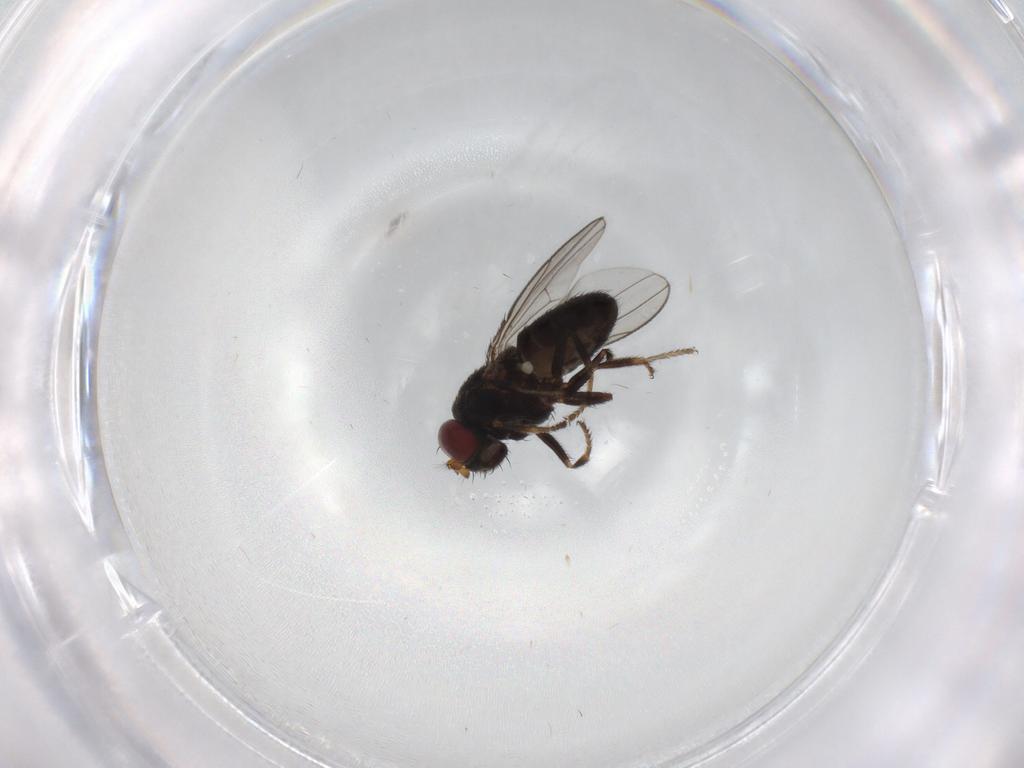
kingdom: Animalia
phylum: Arthropoda
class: Insecta
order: Diptera
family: Ephydridae
